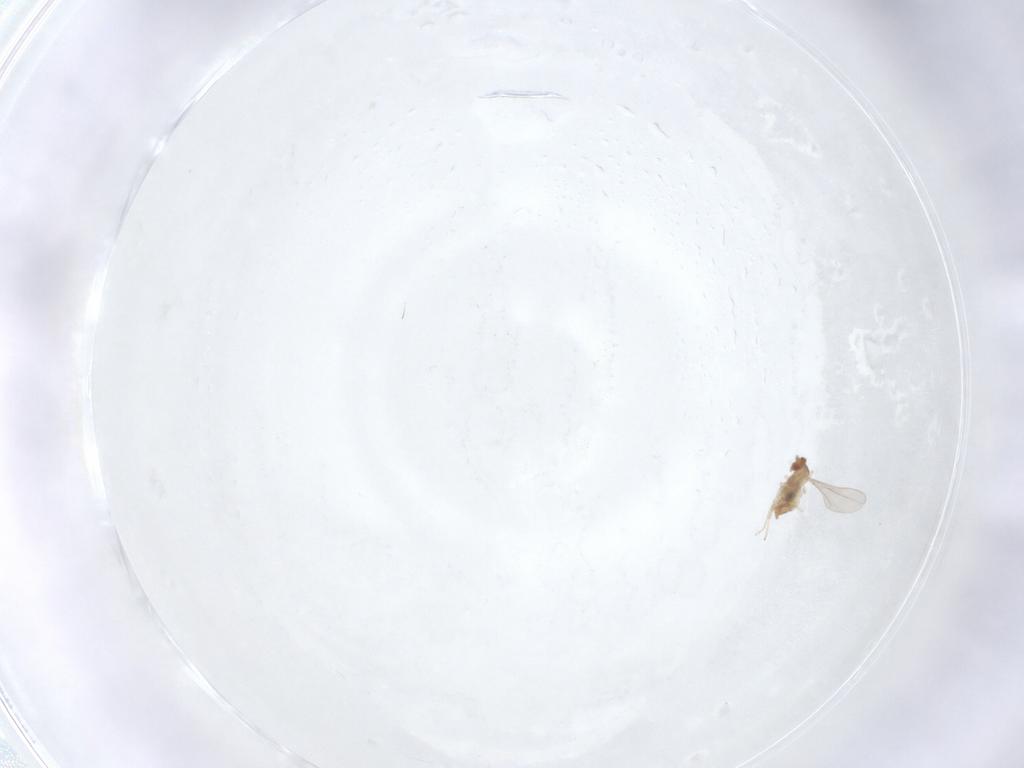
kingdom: Animalia
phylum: Arthropoda
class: Insecta
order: Diptera
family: Cecidomyiidae
